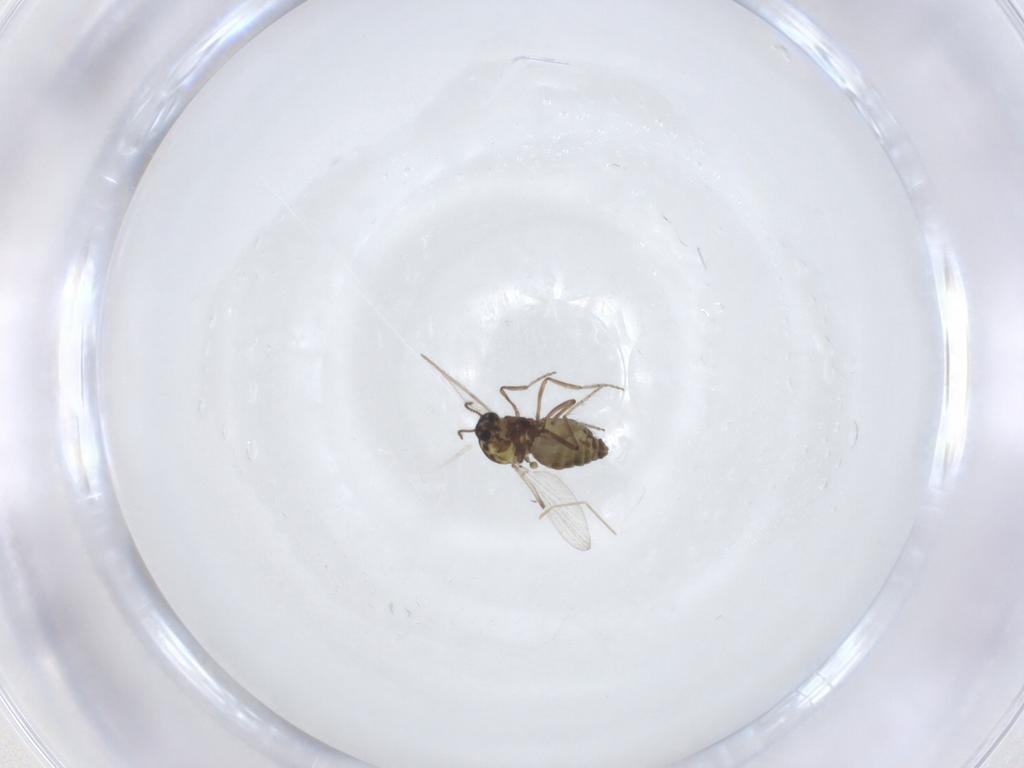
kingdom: Animalia
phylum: Arthropoda
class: Insecta
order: Diptera
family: Ceratopogonidae
